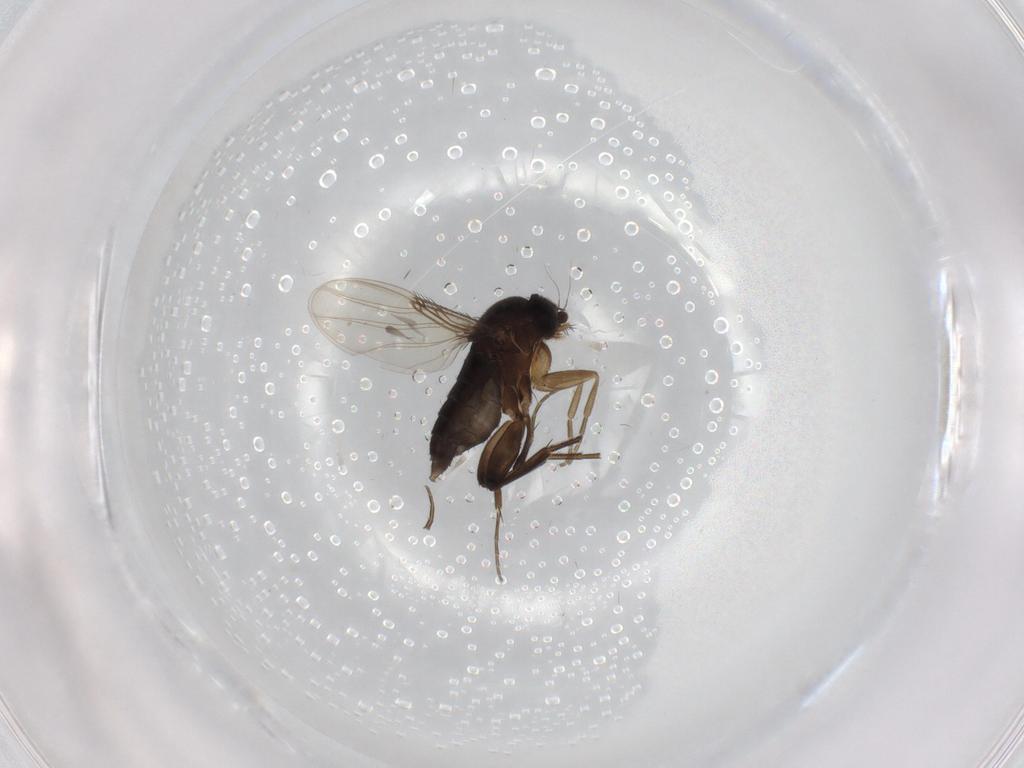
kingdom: Animalia
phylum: Arthropoda
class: Insecta
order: Diptera
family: Phoridae
